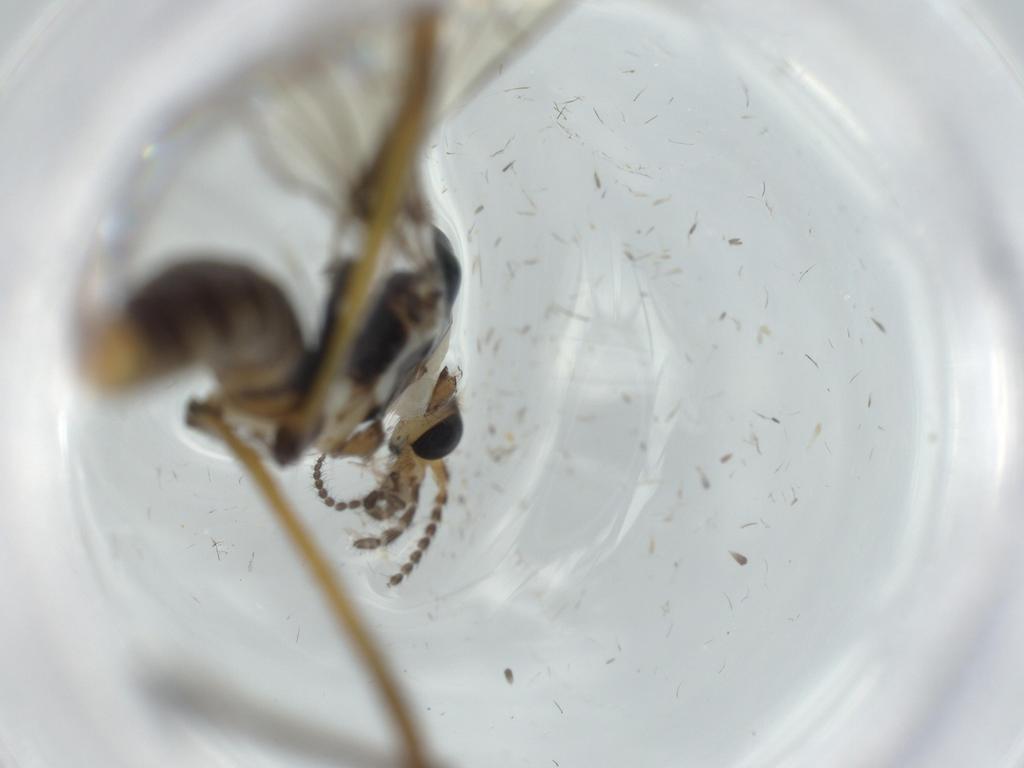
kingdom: Animalia
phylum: Arthropoda
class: Insecta
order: Diptera
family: Limoniidae
